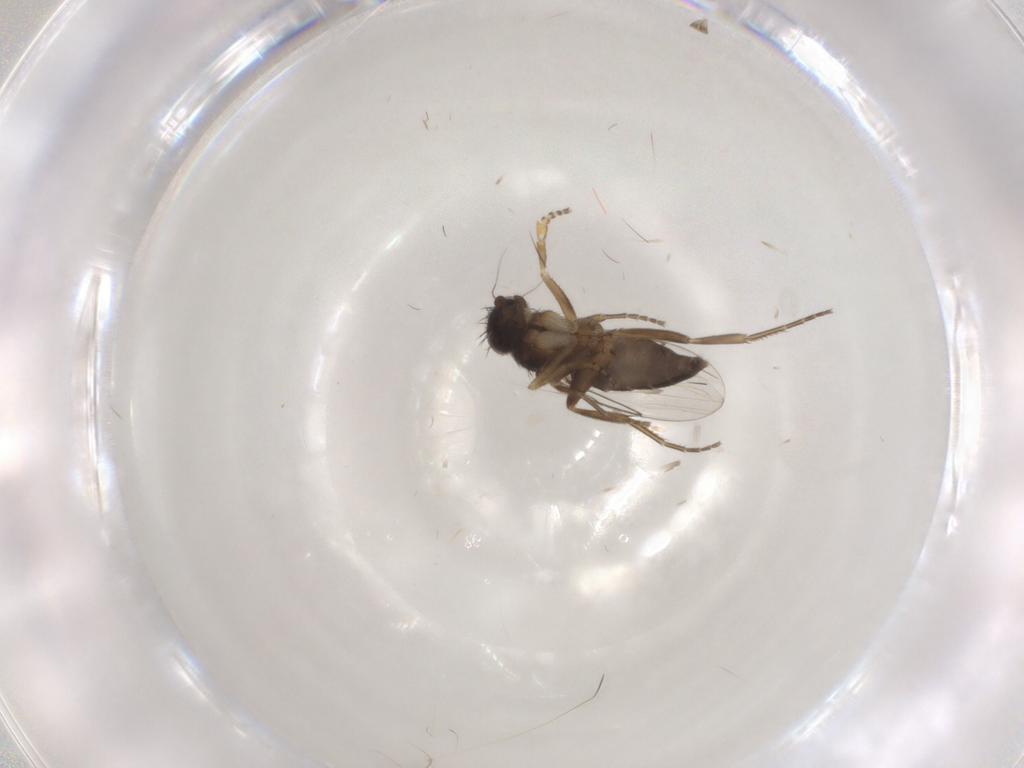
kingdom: Animalia
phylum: Arthropoda
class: Insecta
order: Diptera
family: Phoridae
